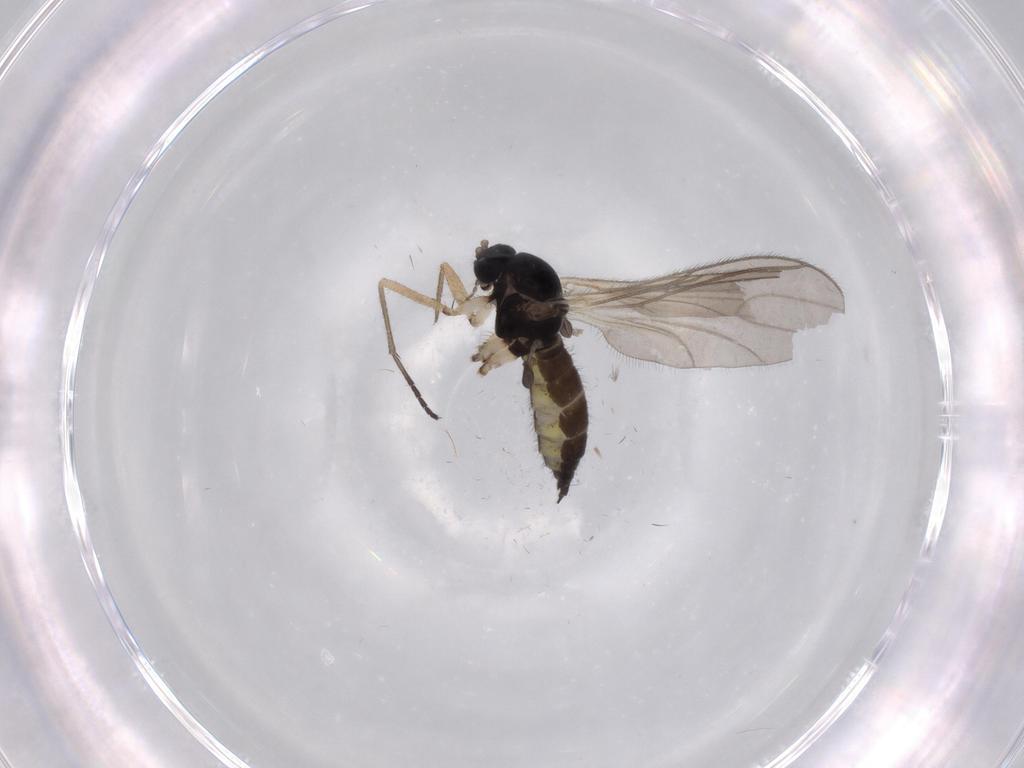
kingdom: Animalia
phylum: Arthropoda
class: Insecta
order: Diptera
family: Sciaridae
